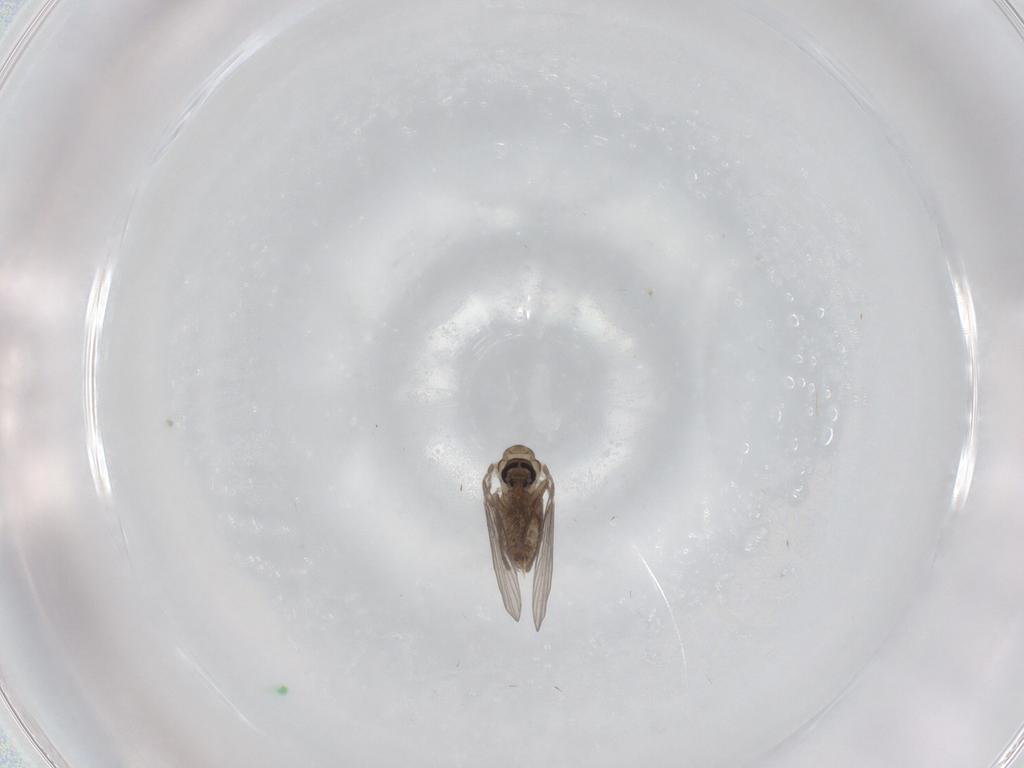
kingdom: Animalia
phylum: Arthropoda
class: Insecta
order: Diptera
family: Psychodidae
